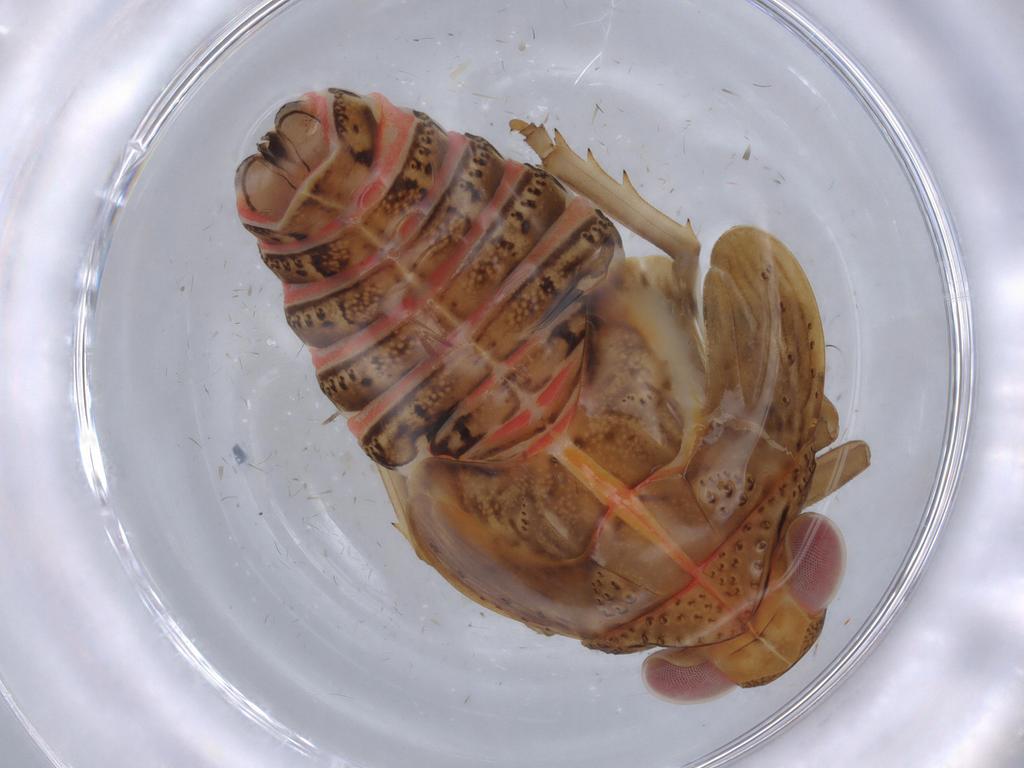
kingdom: Animalia
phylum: Arthropoda
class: Insecta
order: Hemiptera
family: Issidae
